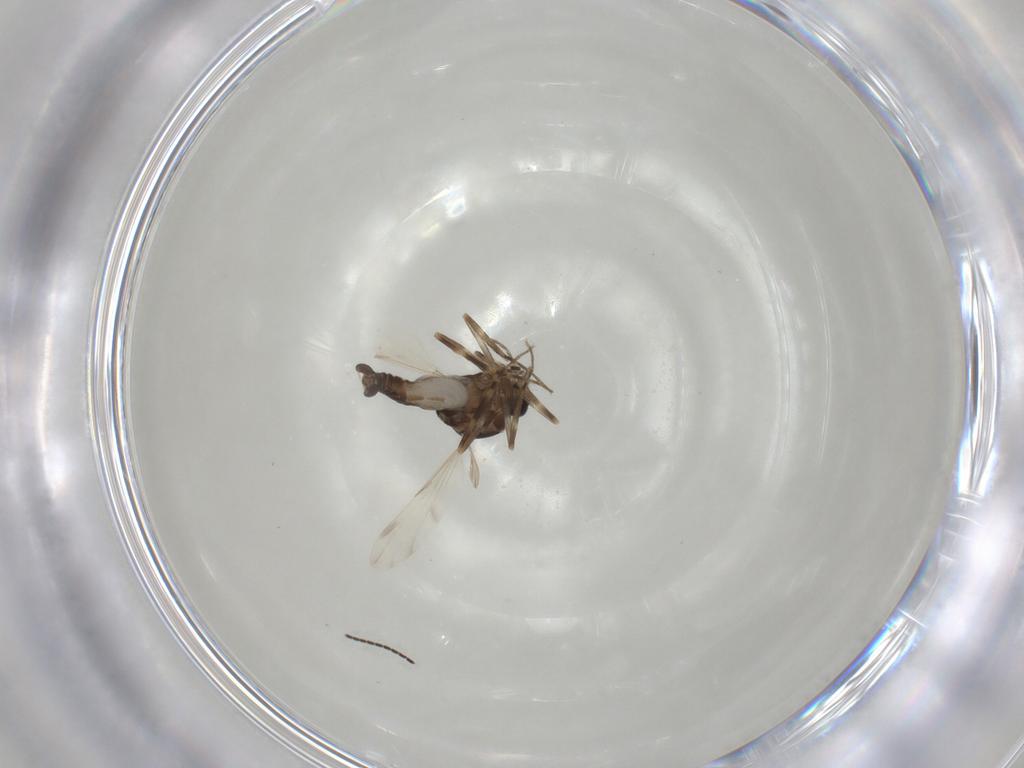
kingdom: Animalia
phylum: Arthropoda
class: Insecta
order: Diptera
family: Ceratopogonidae
